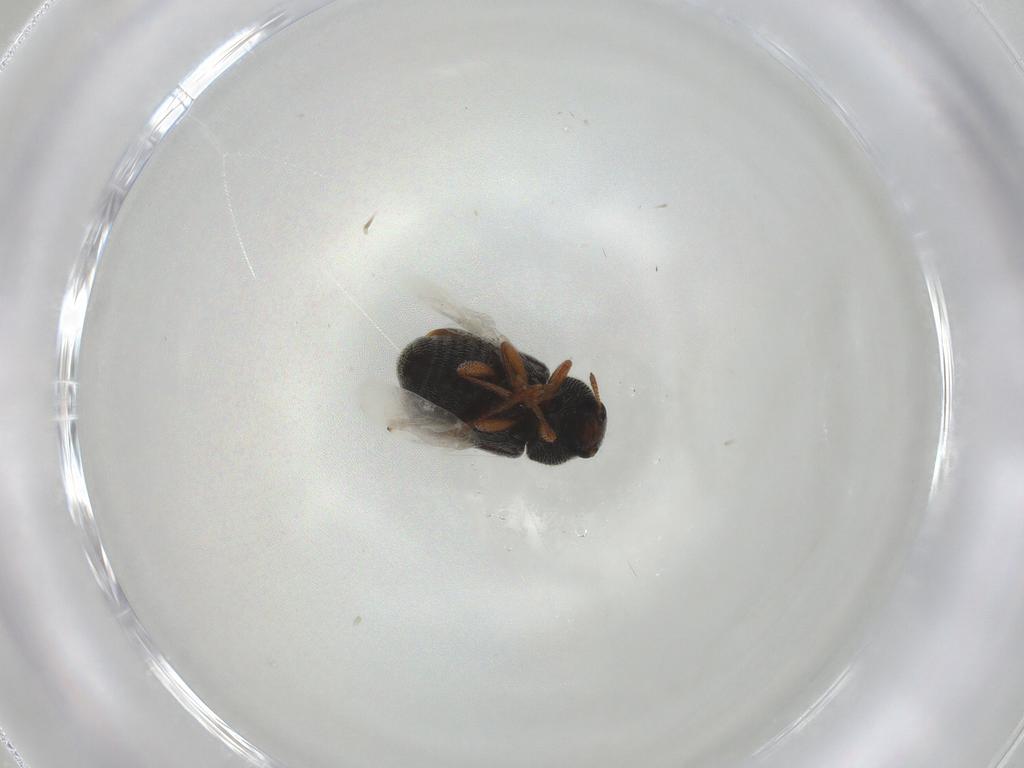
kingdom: Animalia
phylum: Arthropoda
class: Insecta
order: Coleoptera
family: Anthribidae
